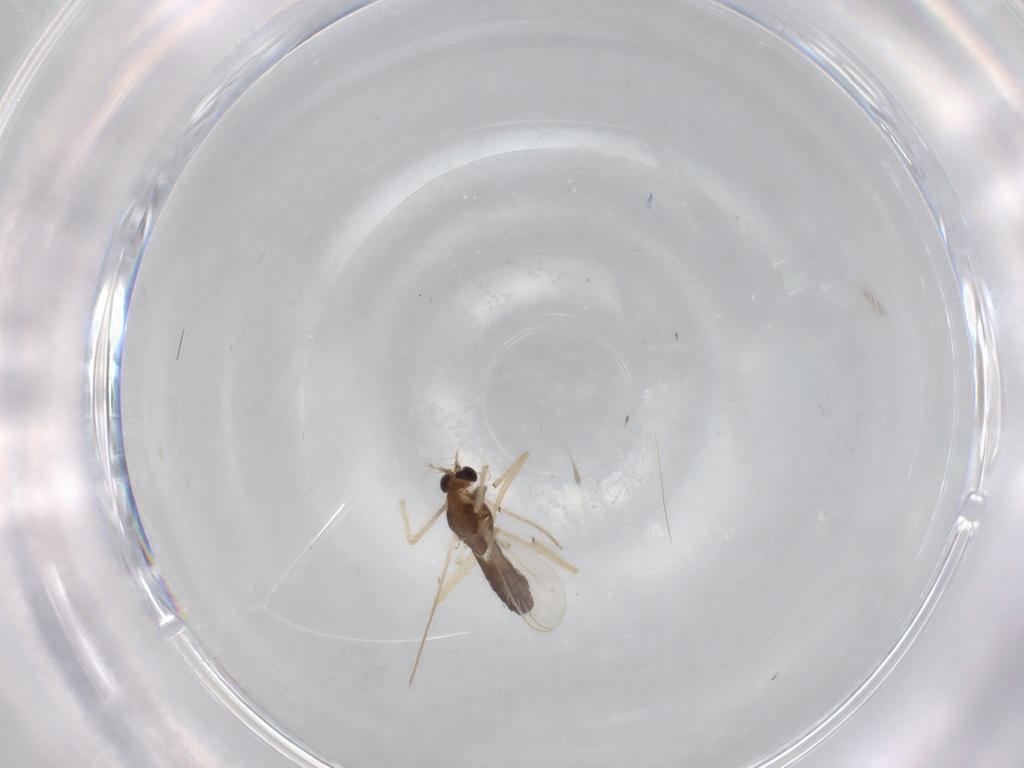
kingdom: Animalia
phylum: Arthropoda
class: Insecta
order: Diptera
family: Chironomidae
